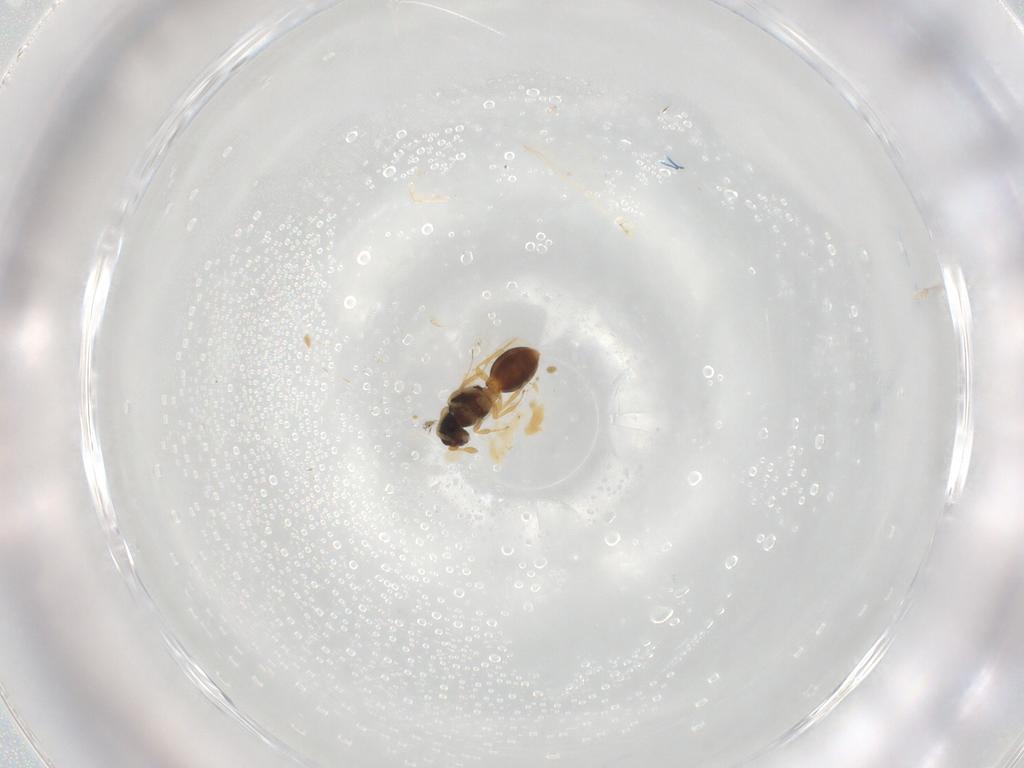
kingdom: Animalia
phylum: Arthropoda
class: Insecta
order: Hymenoptera
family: Scelionidae
